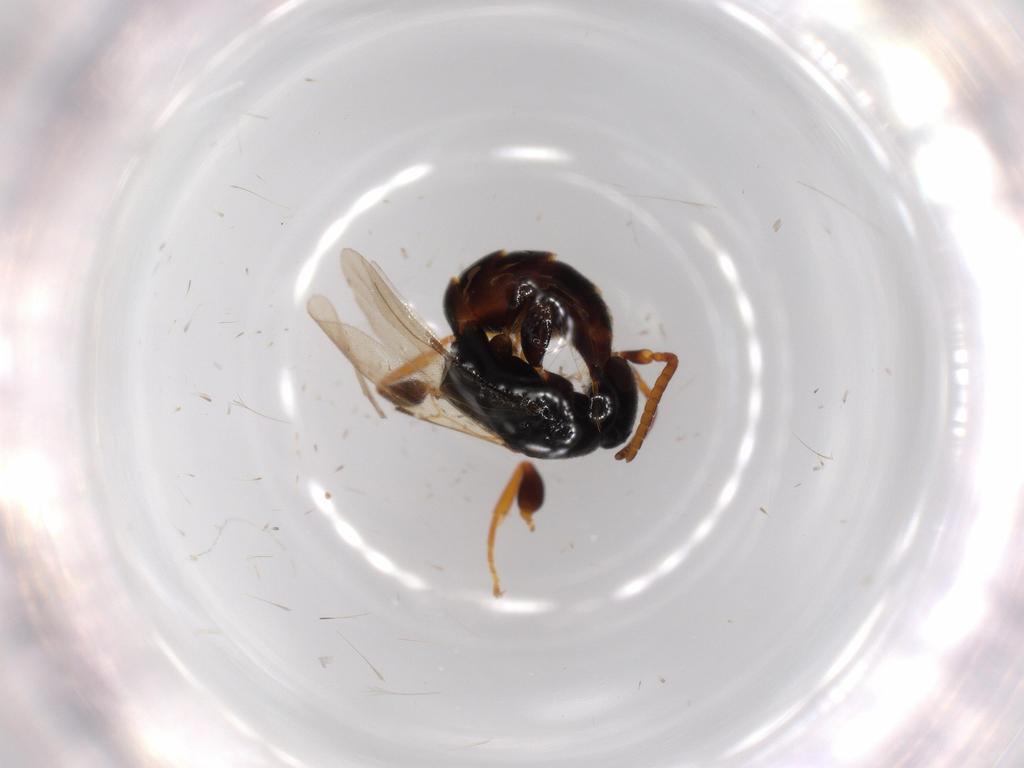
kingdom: Animalia
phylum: Arthropoda
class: Insecta
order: Hymenoptera
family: Bethylidae
